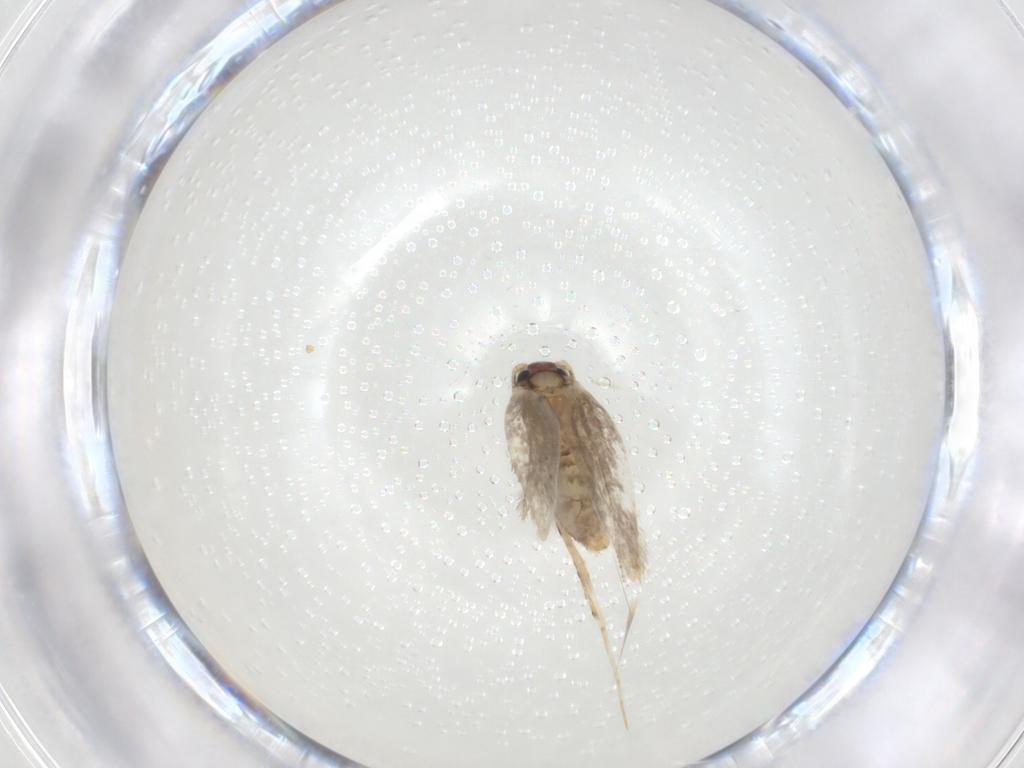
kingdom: Animalia
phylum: Arthropoda
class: Insecta
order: Lepidoptera
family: Tineidae
